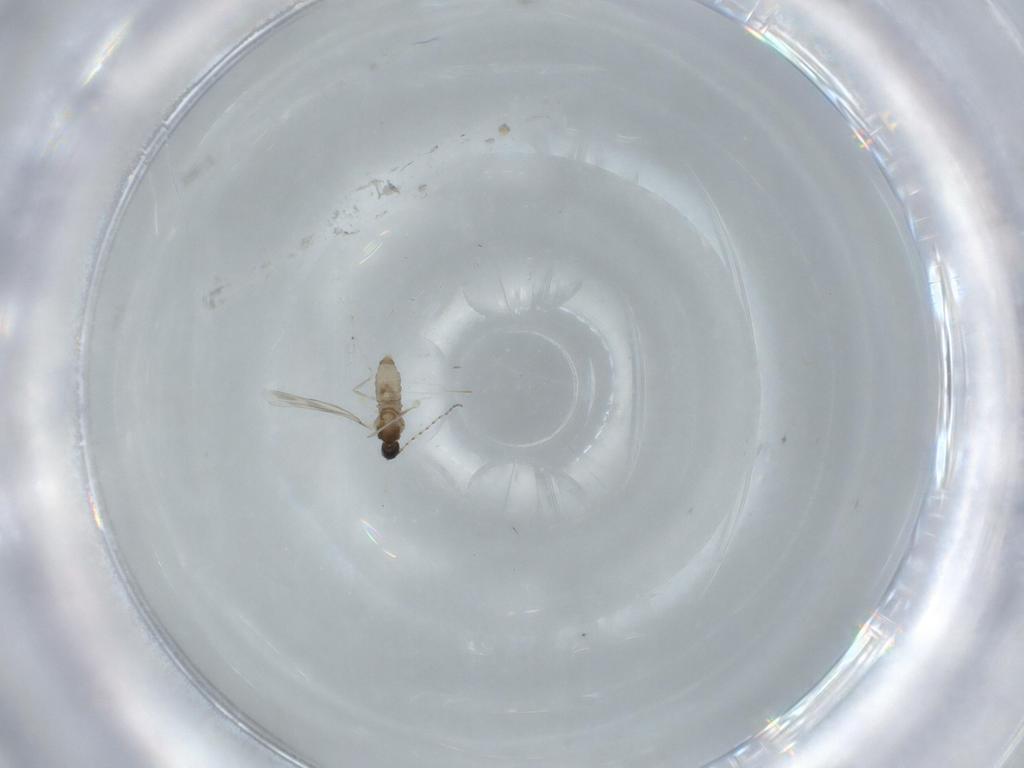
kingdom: Animalia
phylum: Arthropoda
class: Insecta
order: Diptera
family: Cecidomyiidae
